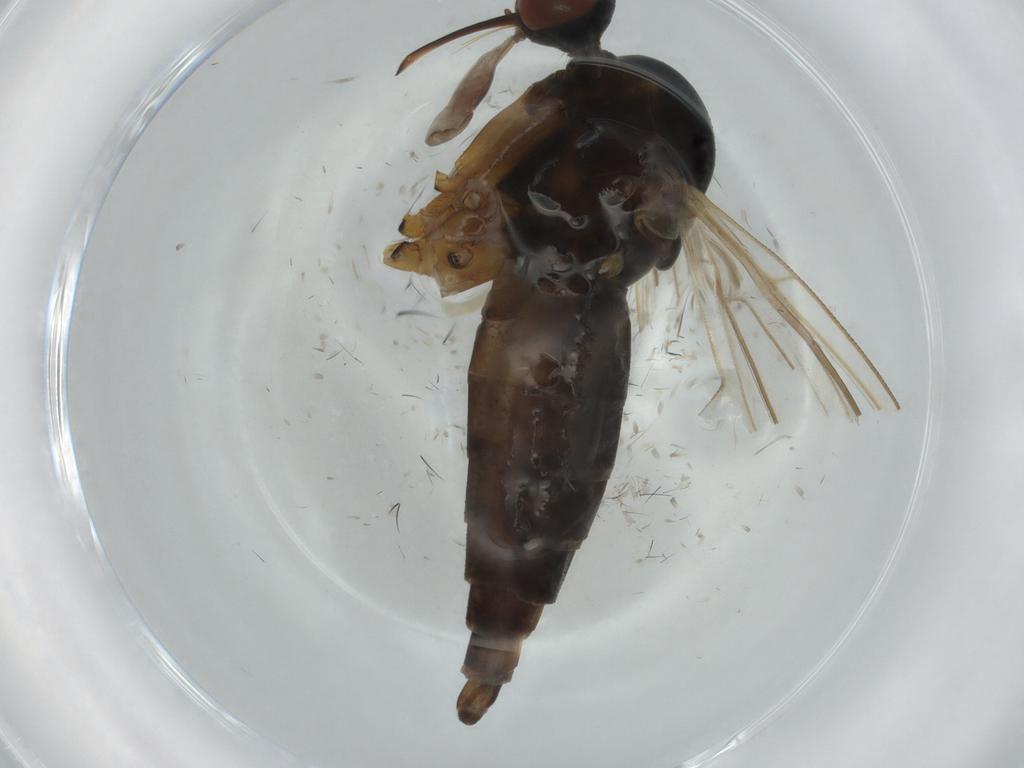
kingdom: Animalia
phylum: Arthropoda
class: Insecta
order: Diptera
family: Empididae
